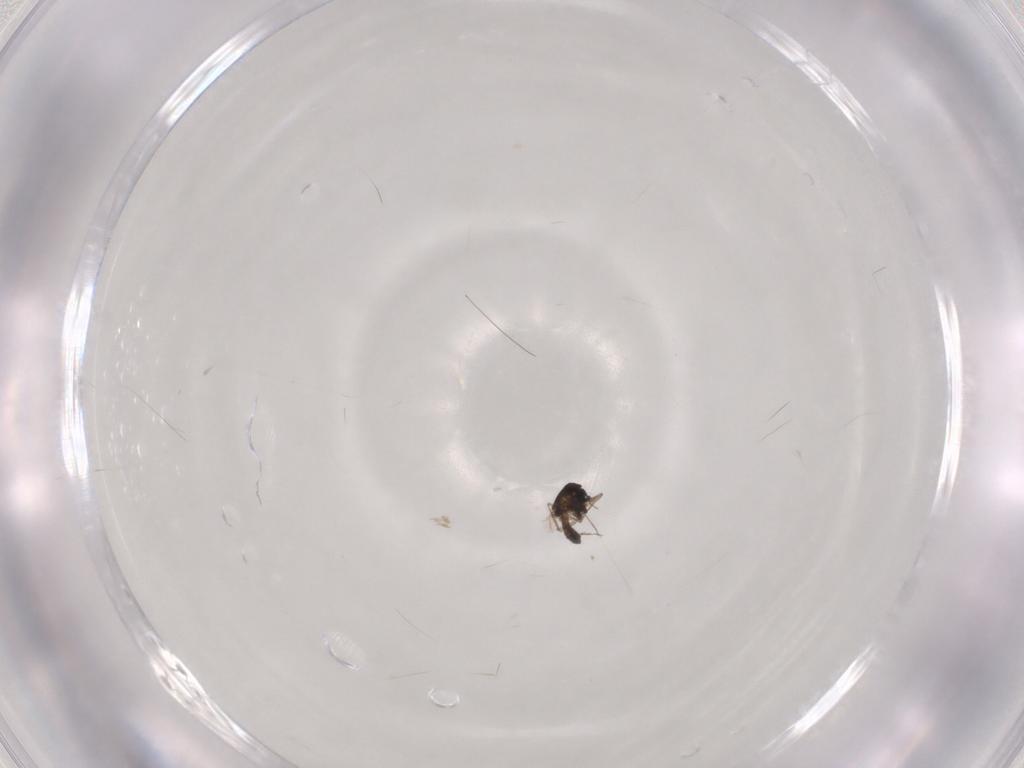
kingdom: Animalia
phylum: Arthropoda
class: Insecta
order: Diptera
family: Chironomidae
